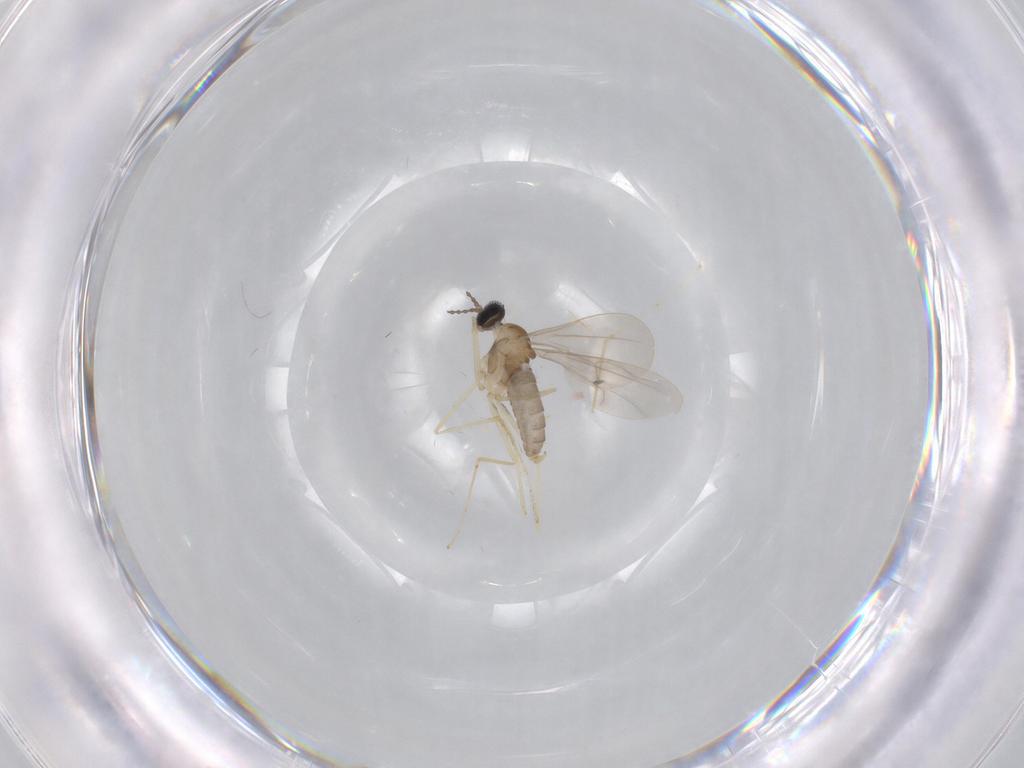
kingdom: Animalia
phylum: Arthropoda
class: Insecta
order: Diptera
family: Cecidomyiidae
